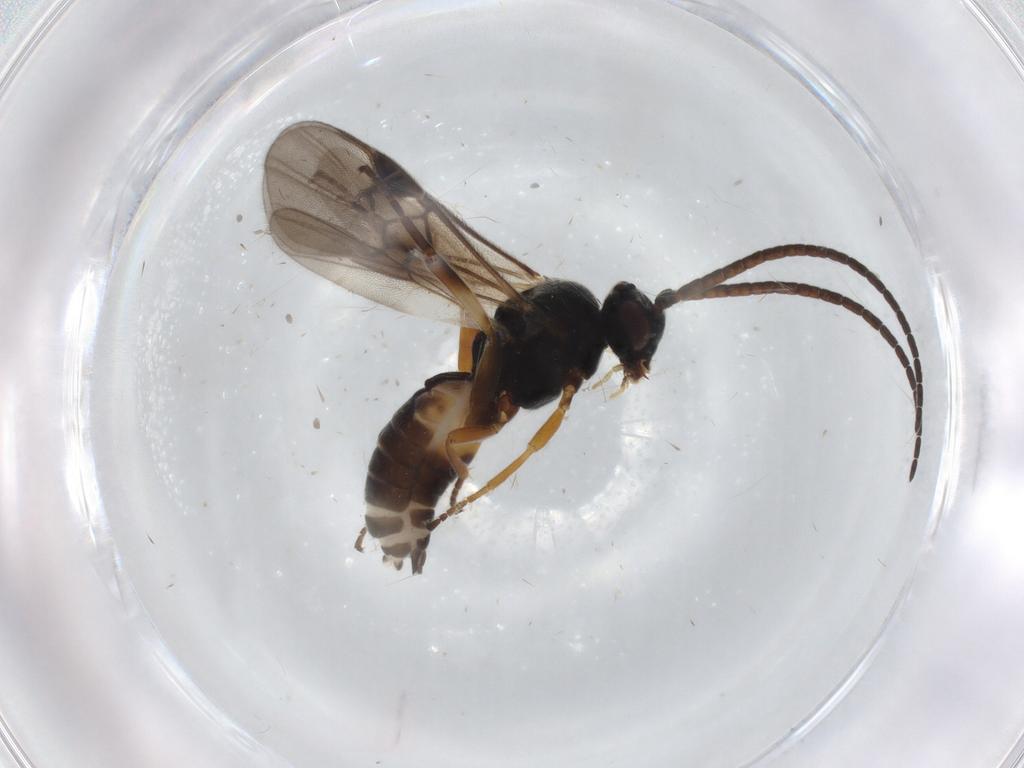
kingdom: Animalia
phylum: Arthropoda
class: Insecta
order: Hymenoptera
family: Braconidae
